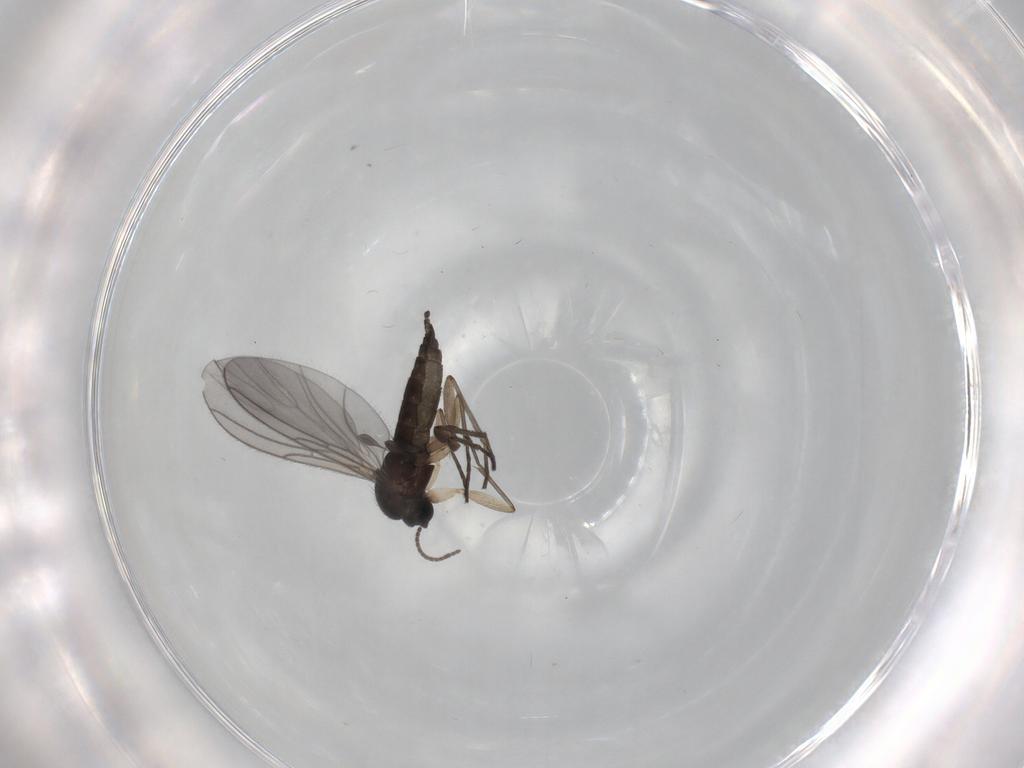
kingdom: Animalia
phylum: Arthropoda
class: Insecta
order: Diptera
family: Sciaridae
